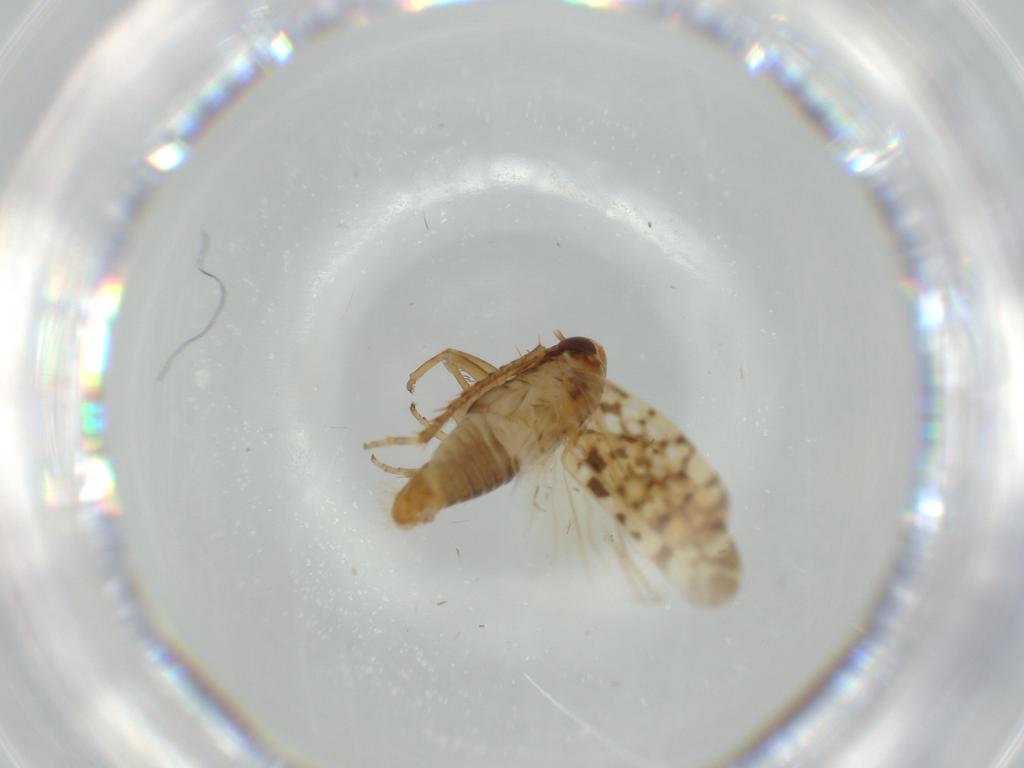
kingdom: Animalia
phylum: Arthropoda
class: Insecta
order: Hemiptera
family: Cicadellidae
